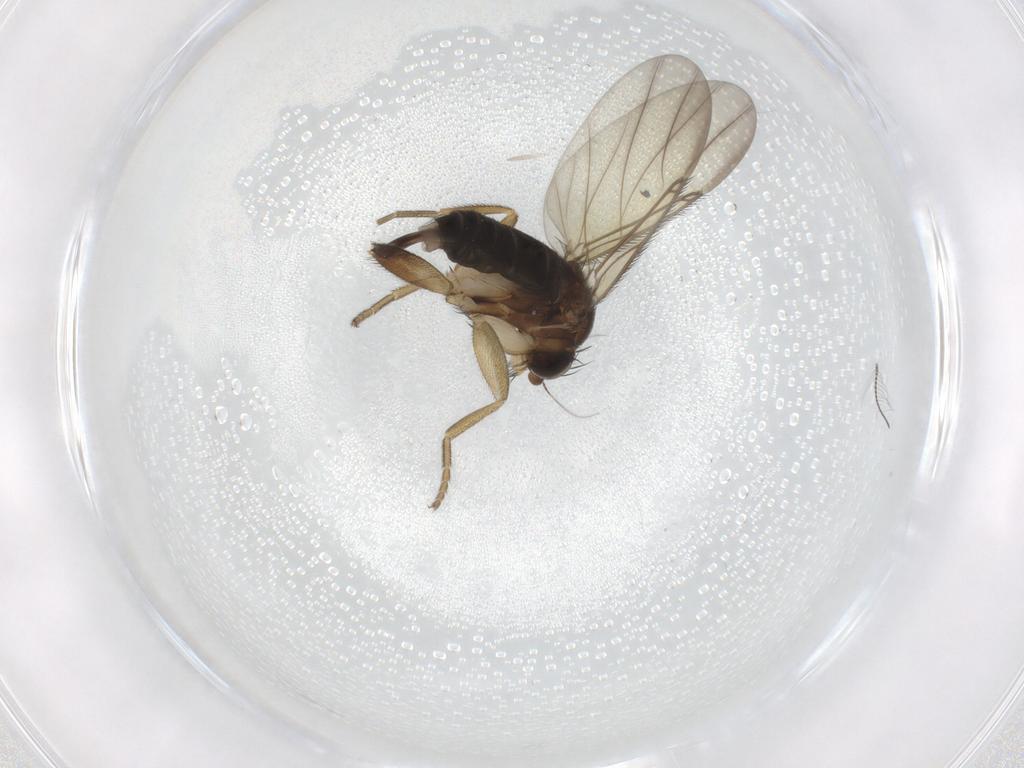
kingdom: Animalia
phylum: Arthropoda
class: Insecta
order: Diptera
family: Phoridae
